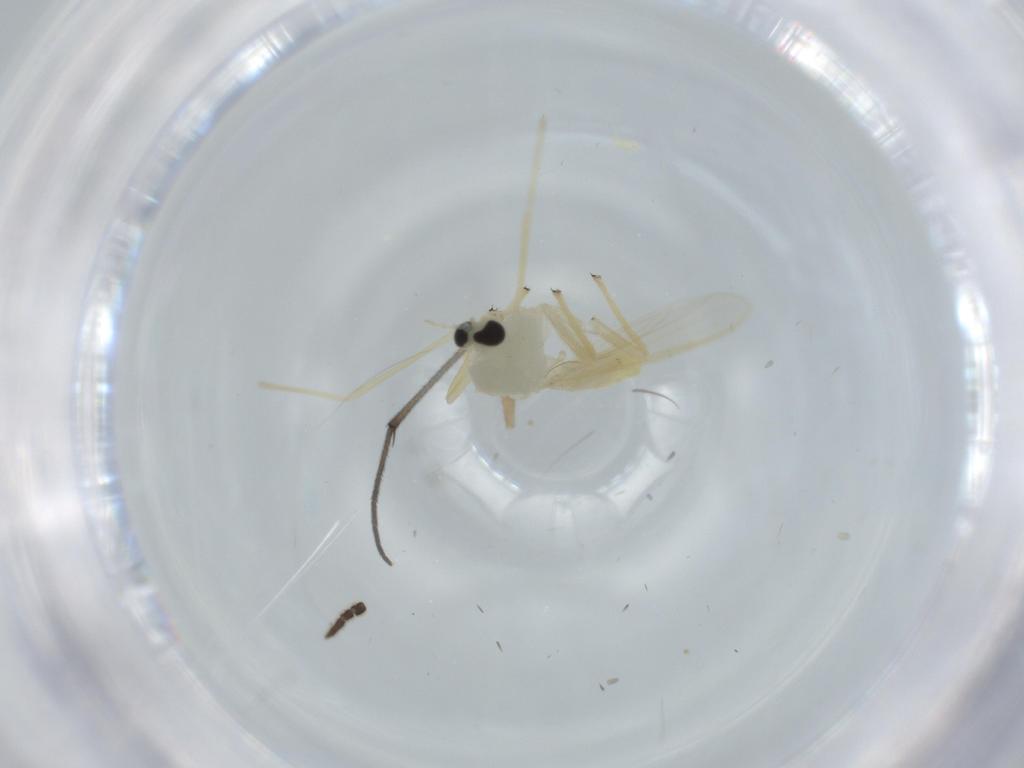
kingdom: Animalia
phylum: Arthropoda
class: Insecta
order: Diptera
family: Chironomidae
